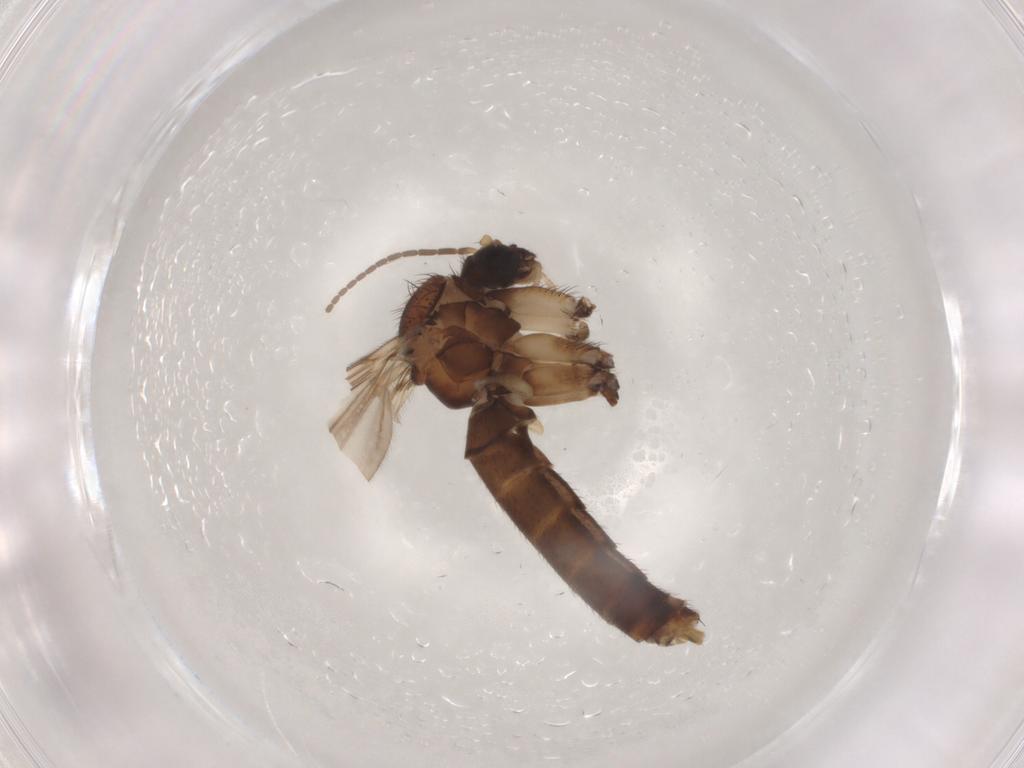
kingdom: Animalia
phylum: Arthropoda
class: Insecta
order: Diptera
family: Mycetophilidae
